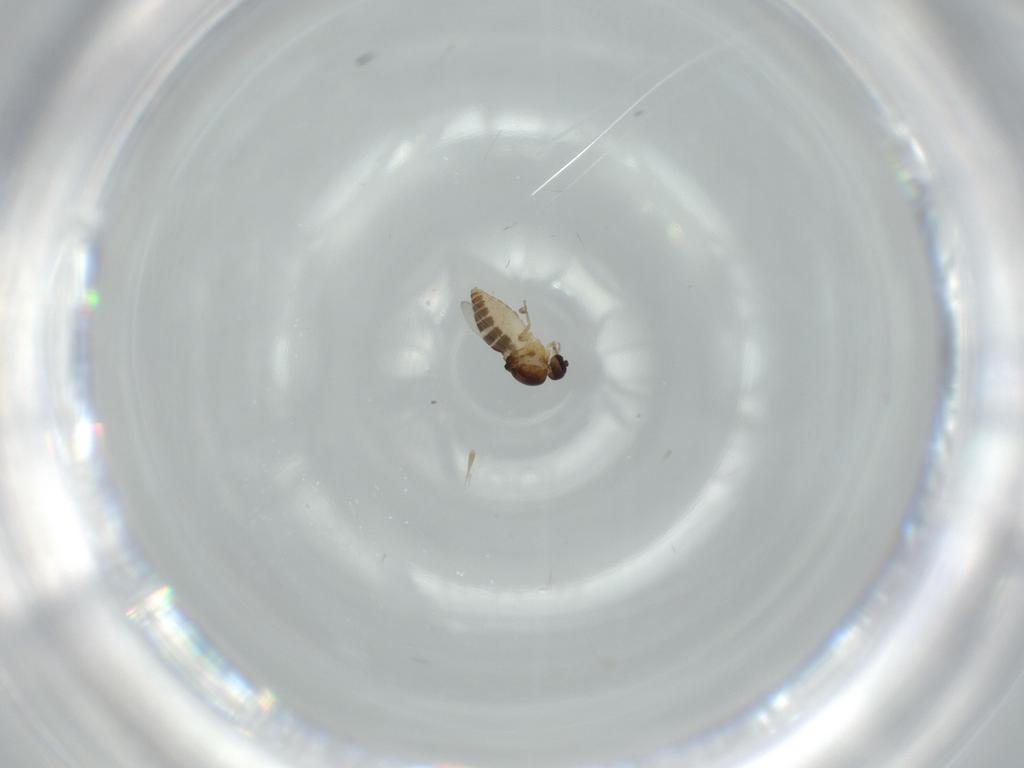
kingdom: Animalia
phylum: Arthropoda
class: Insecta
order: Diptera
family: Ceratopogonidae
